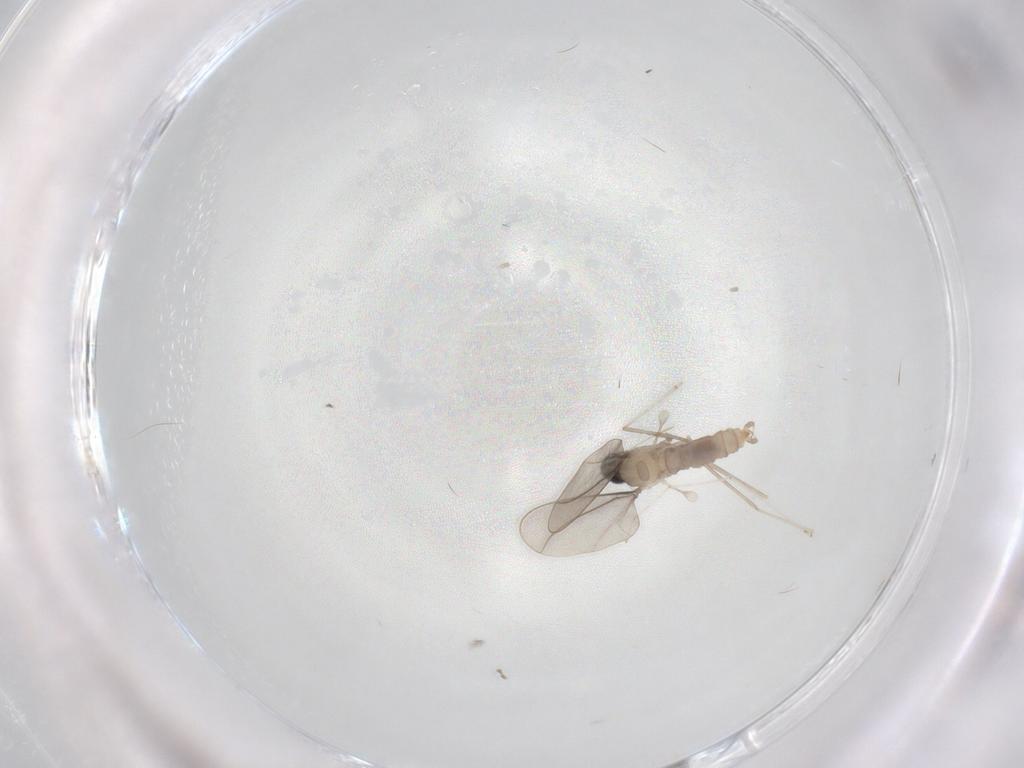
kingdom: Animalia
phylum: Arthropoda
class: Insecta
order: Diptera
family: Cecidomyiidae
